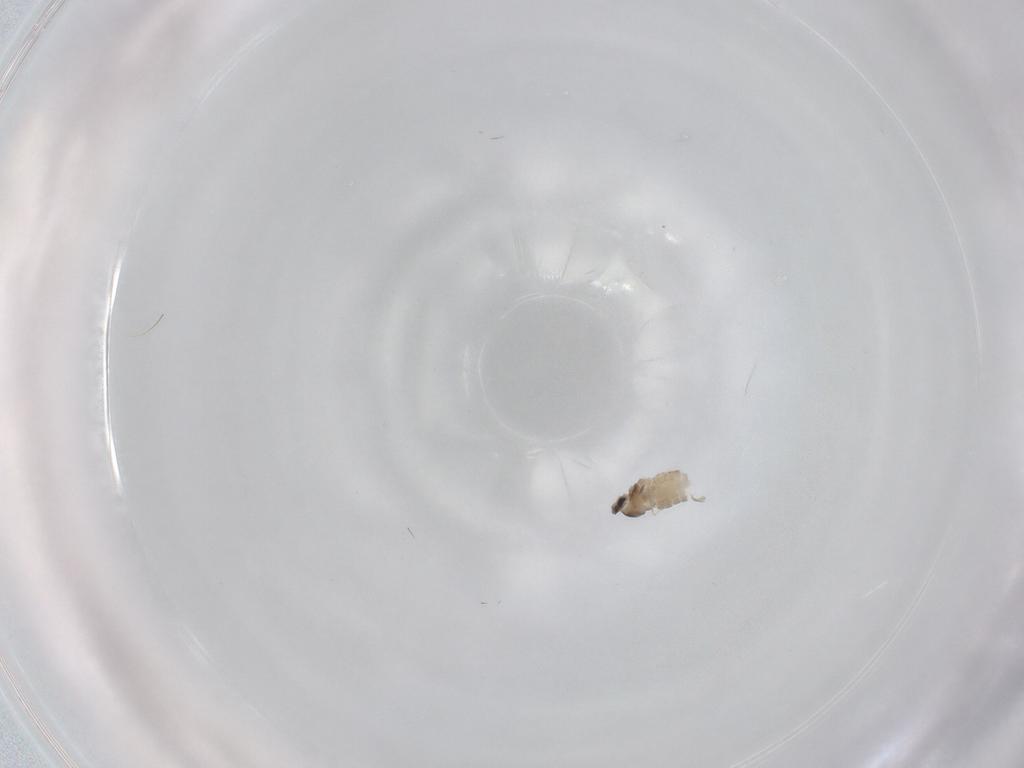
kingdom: Animalia
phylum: Arthropoda
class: Insecta
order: Diptera
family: Cecidomyiidae
